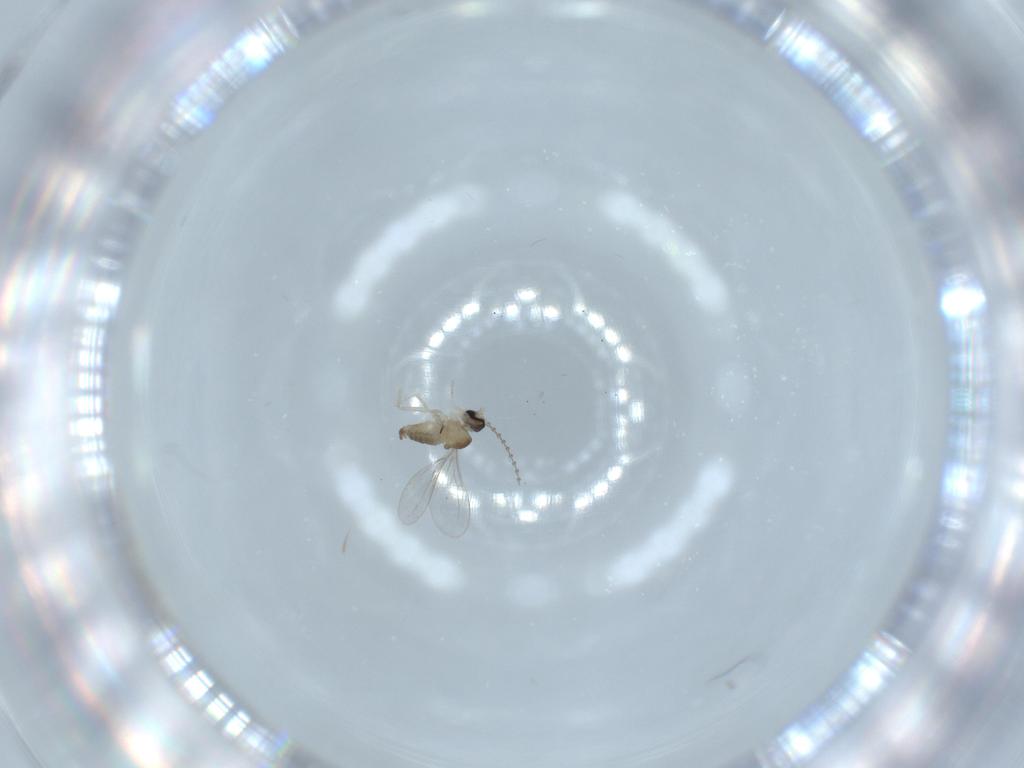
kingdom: Animalia
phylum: Arthropoda
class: Insecta
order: Diptera
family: Cecidomyiidae
